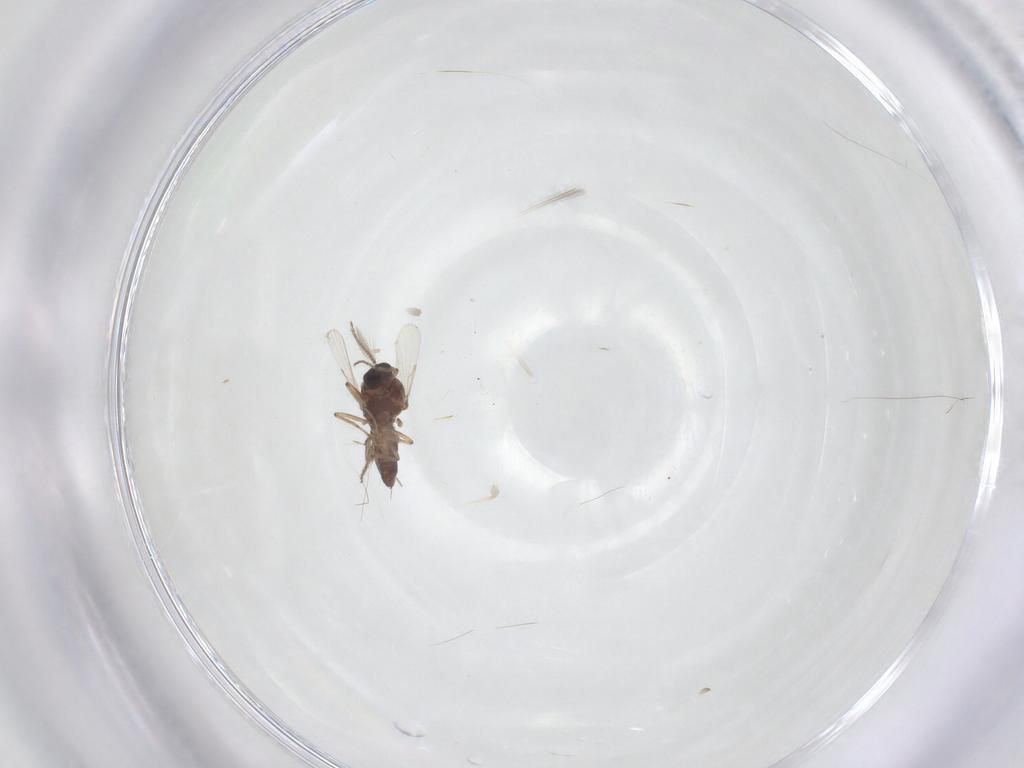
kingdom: Animalia
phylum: Arthropoda
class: Insecta
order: Diptera
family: Ceratopogonidae
